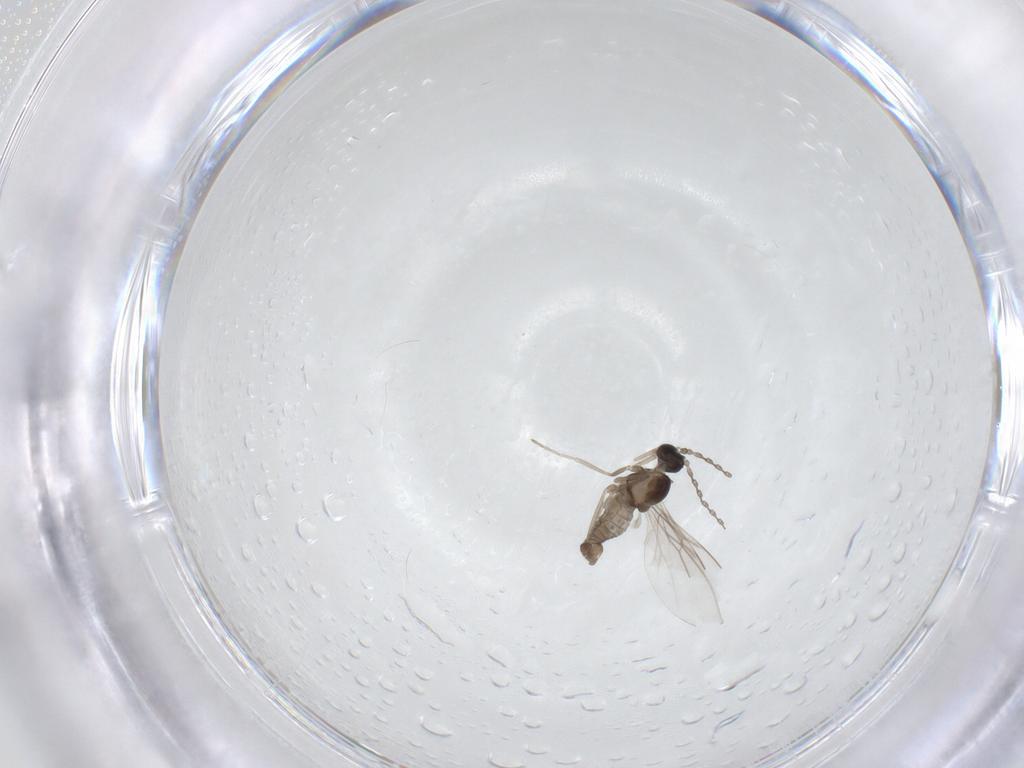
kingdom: Animalia
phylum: Arthropoda
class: Insecta
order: Diptera
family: Cecidomyiidae
